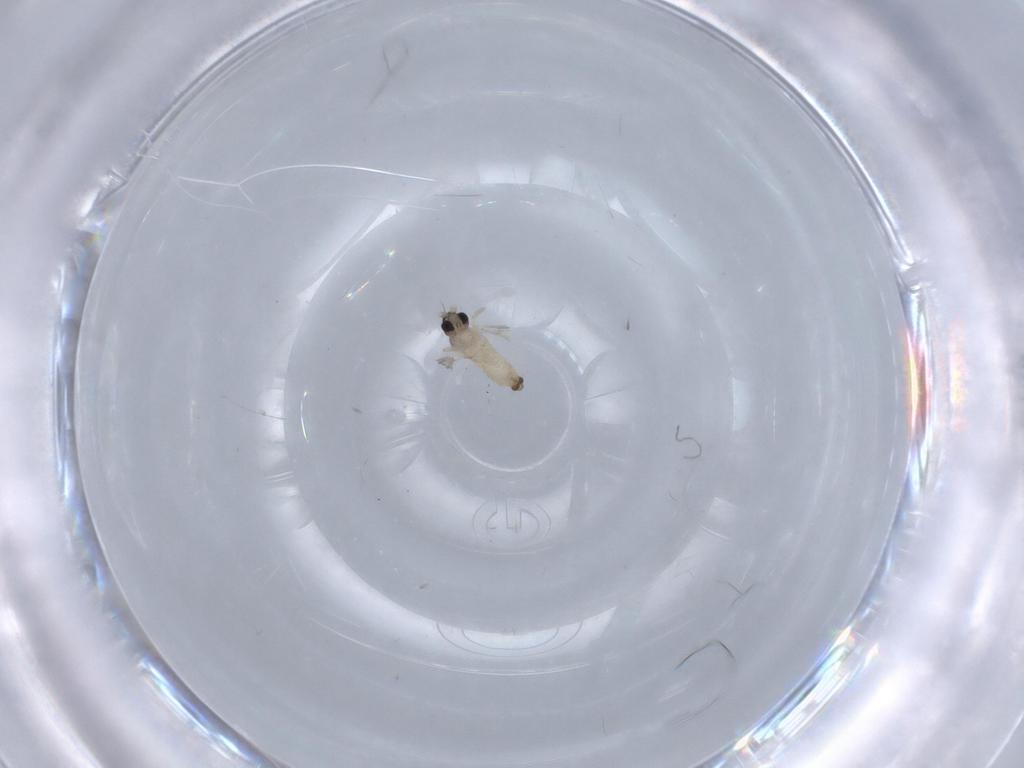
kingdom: Animalia
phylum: Arthropoda
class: Insecta
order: Diptera
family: Cecidomyiidae
